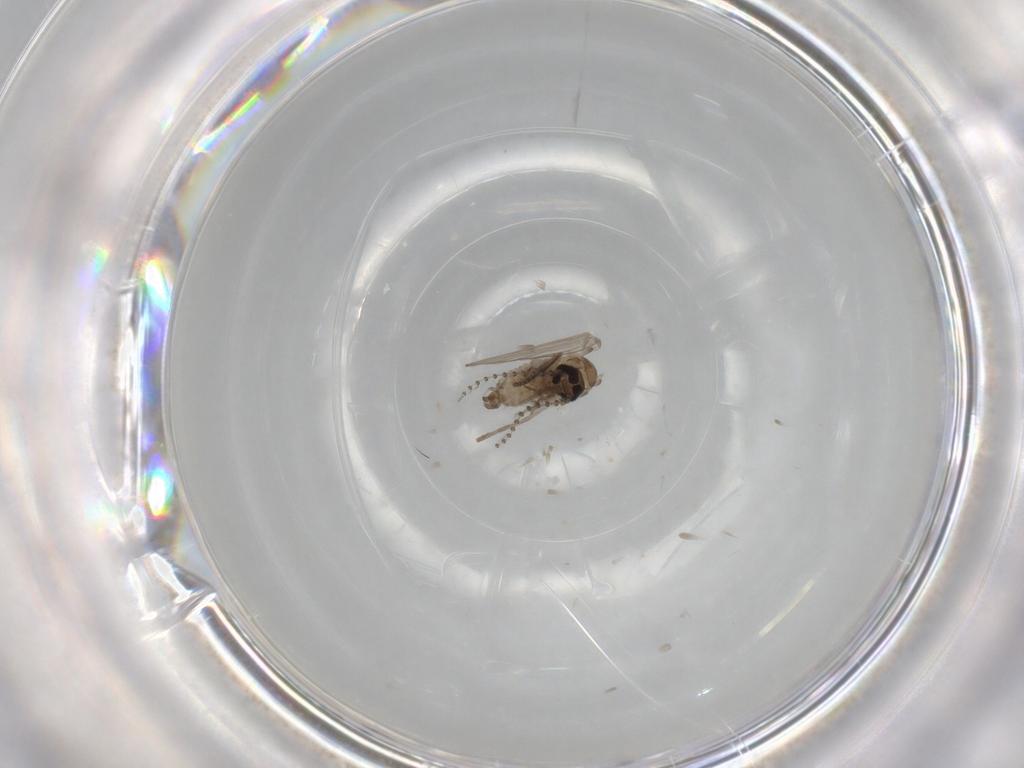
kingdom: Animalia
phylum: Arthropoda
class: Insecta
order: Diptera
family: Psychodidae
